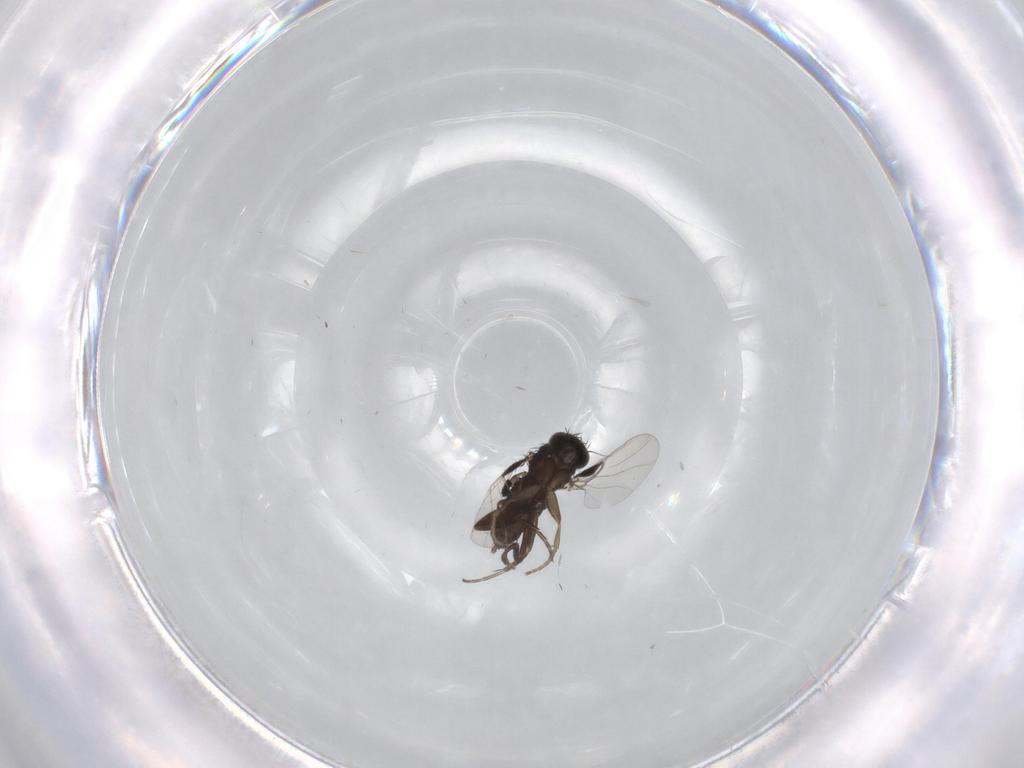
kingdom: Animalia
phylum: Arthropoda
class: Insecta
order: Diptera
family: Phoridae
